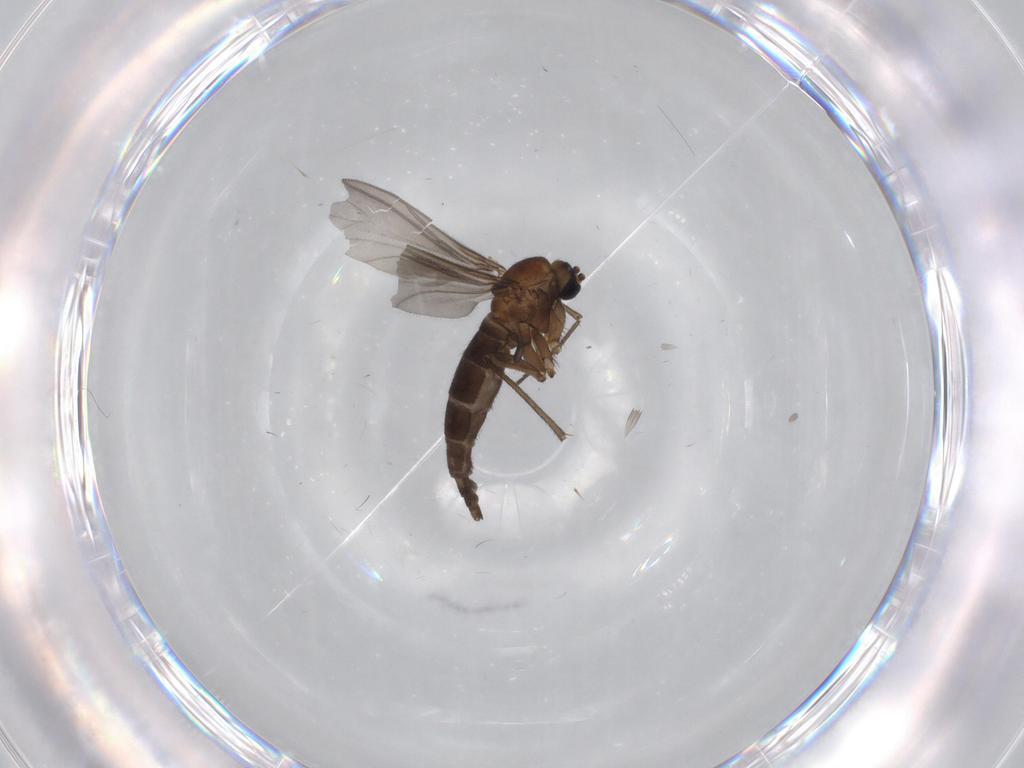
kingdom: Animalia
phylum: Arthropoda
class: Insecta
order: Diptera
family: Sciaridae
